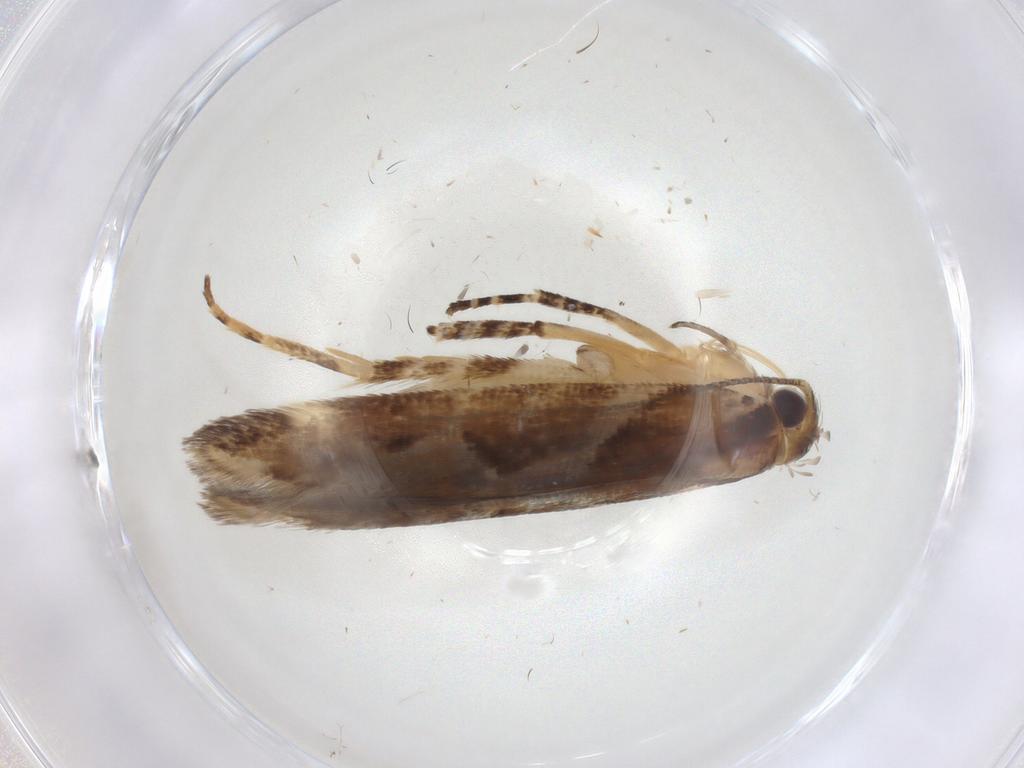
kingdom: Animalia
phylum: Arthropoda
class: Insecta
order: Lepidoptera
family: Gelechiidae
